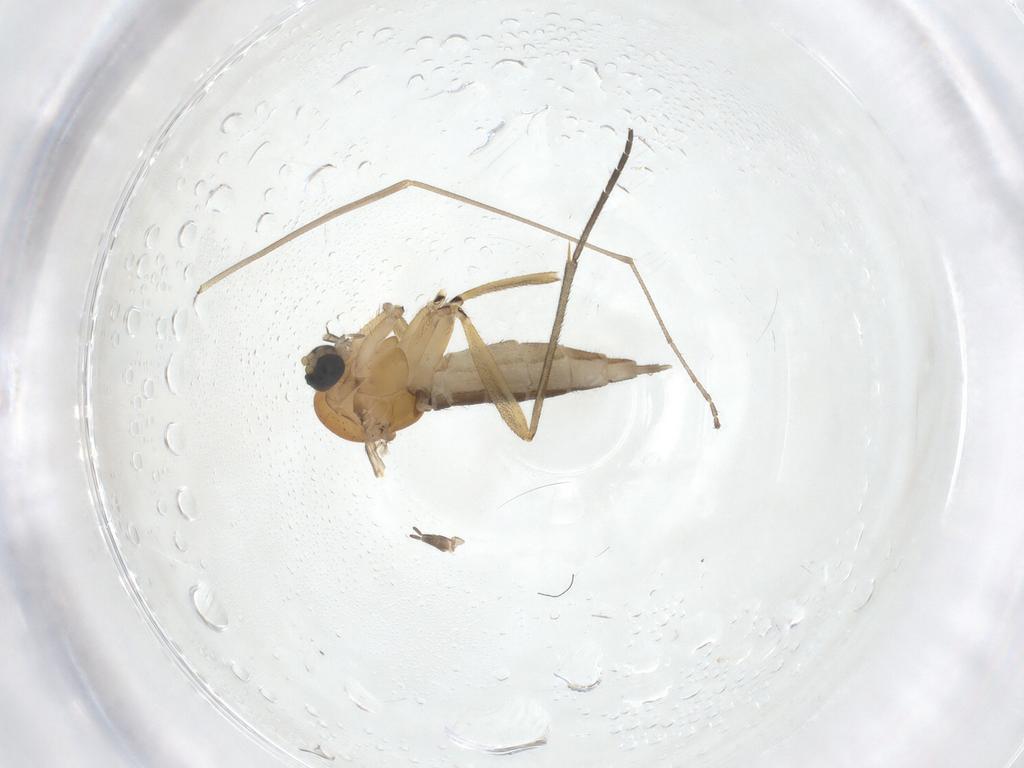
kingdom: Animalia
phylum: Arthropoda
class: Insecta
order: Diptera
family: Sciaridae
